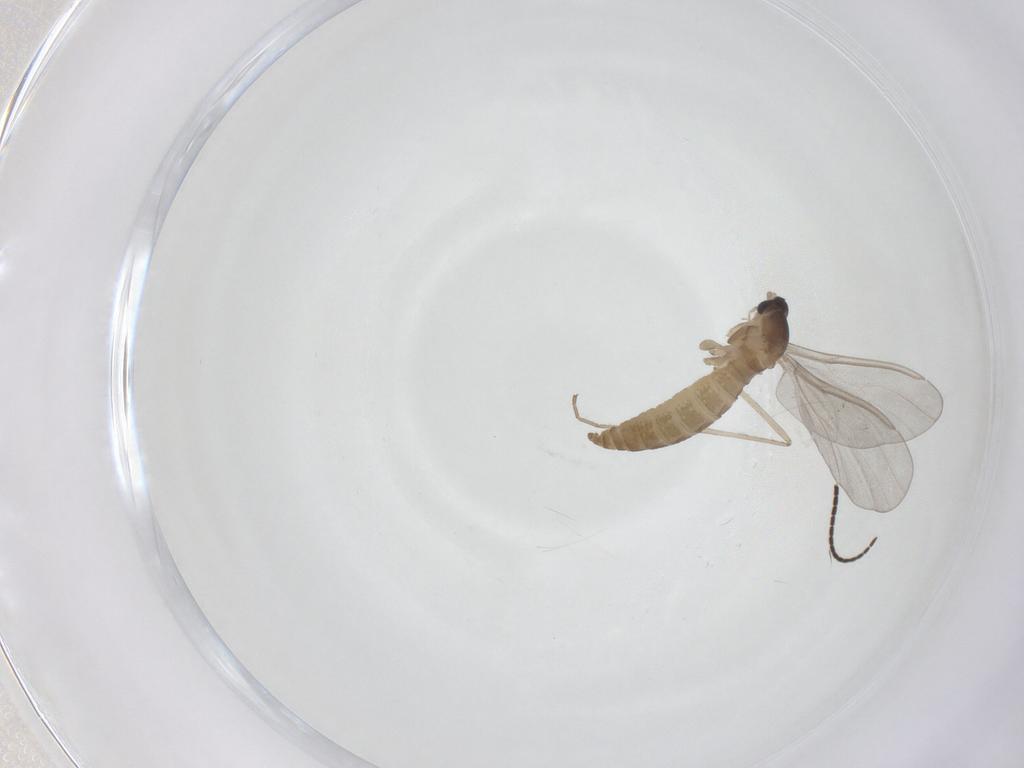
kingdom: Animalia
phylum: Arthropoda
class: Insecta
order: Diptera
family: Cecidomyiidae
